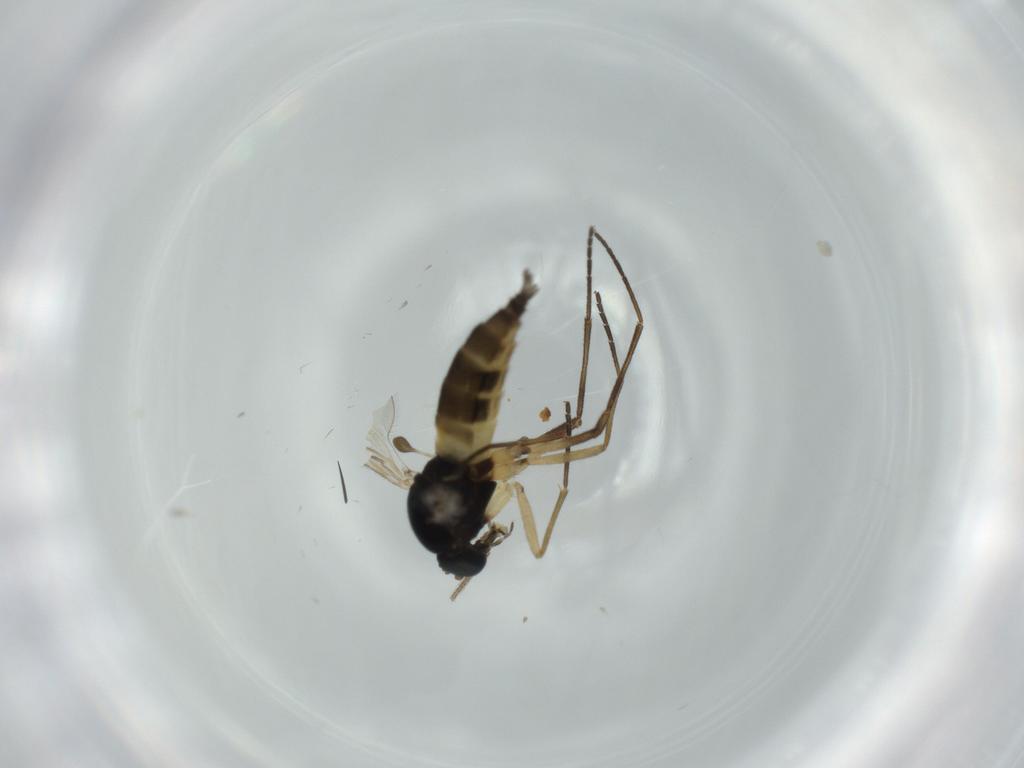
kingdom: Animalia
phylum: Arthropoda
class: Insecta
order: Diptera
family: Sciaridae
